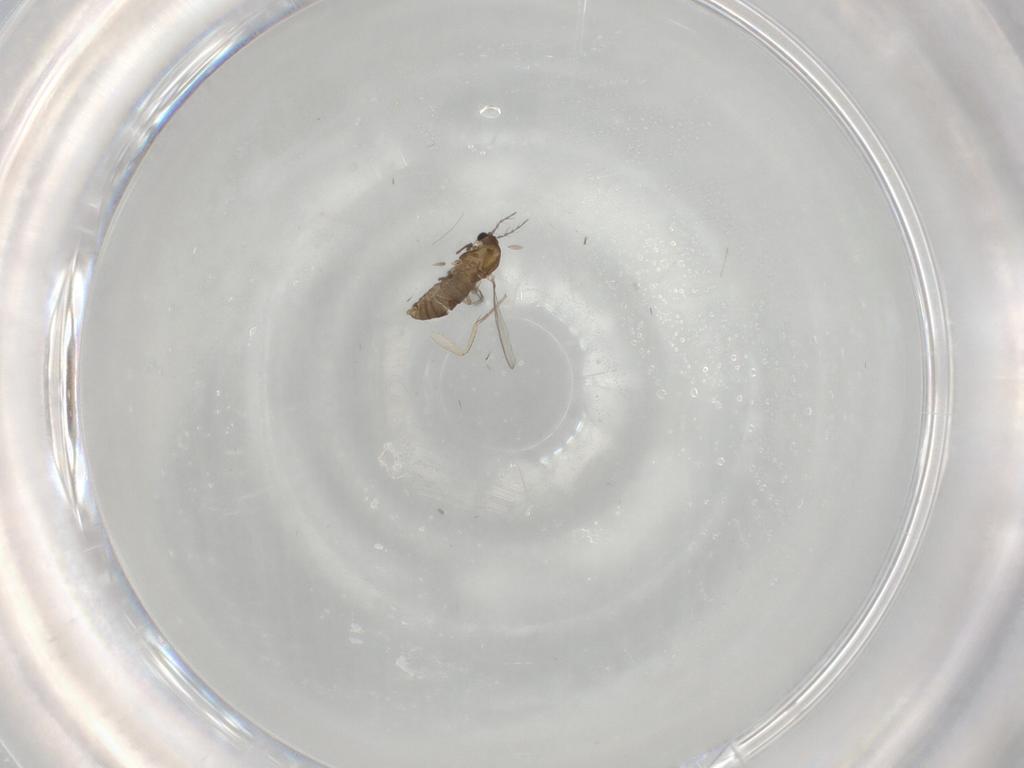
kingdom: Animalia
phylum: Arthropoda
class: Insecta
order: Diptera
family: Chironomidae
